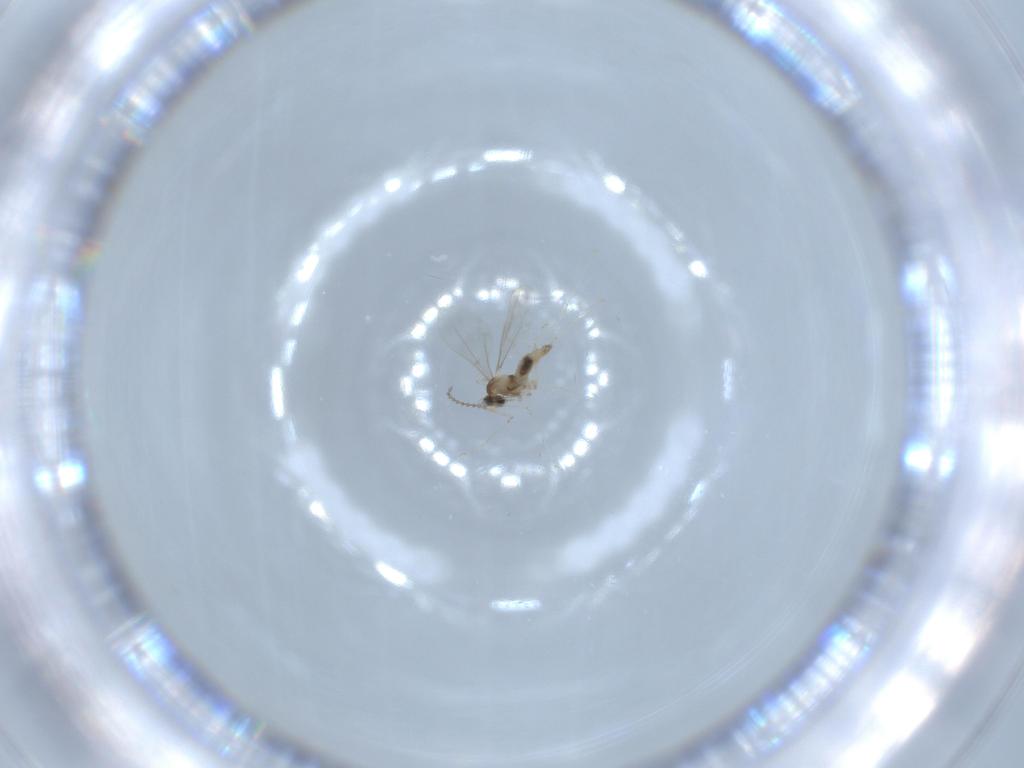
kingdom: Animalia
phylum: Arthropoda
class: Insecta
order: Diptera
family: Cecidomyiidae
